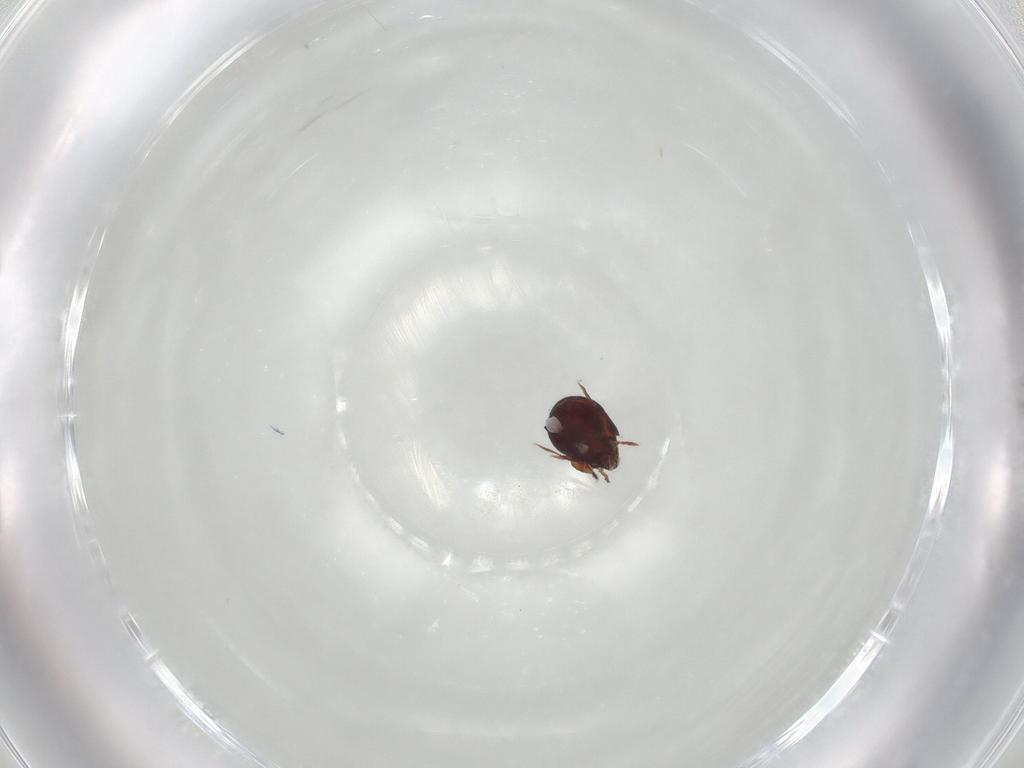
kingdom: Animalia
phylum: Arthropoda
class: Arachnida
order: Sarcoptiformes
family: Humerobatidae
